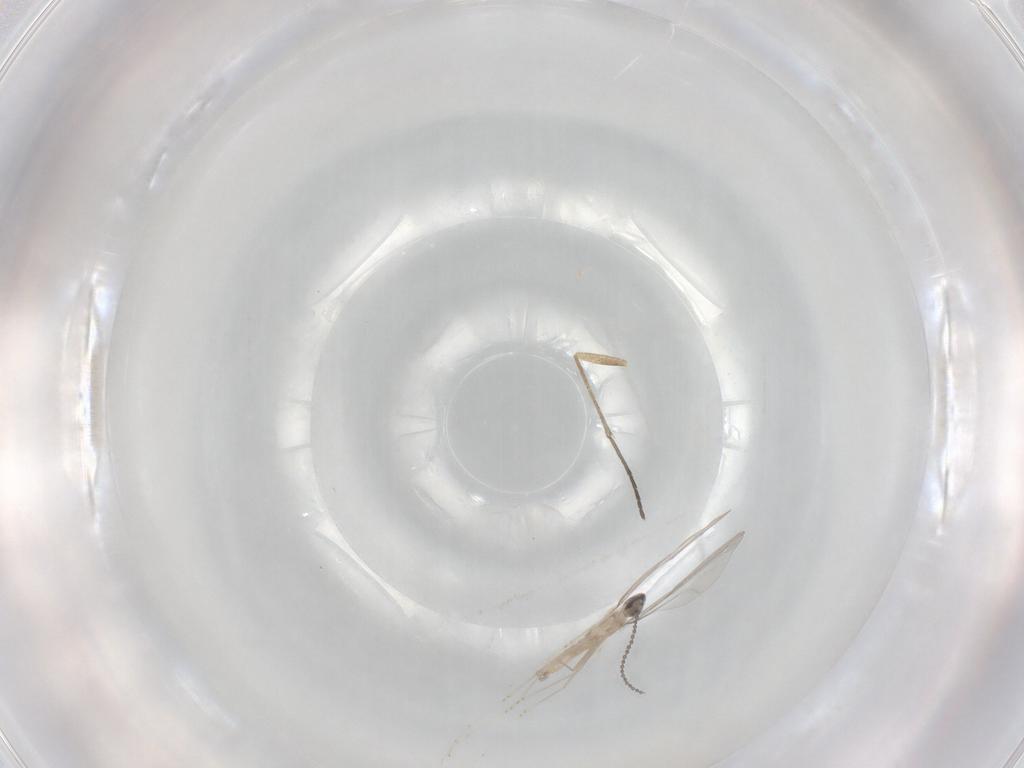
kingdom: Animalia
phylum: Arthropoda
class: Insecta
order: Diptera
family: Cecidomyiidae
